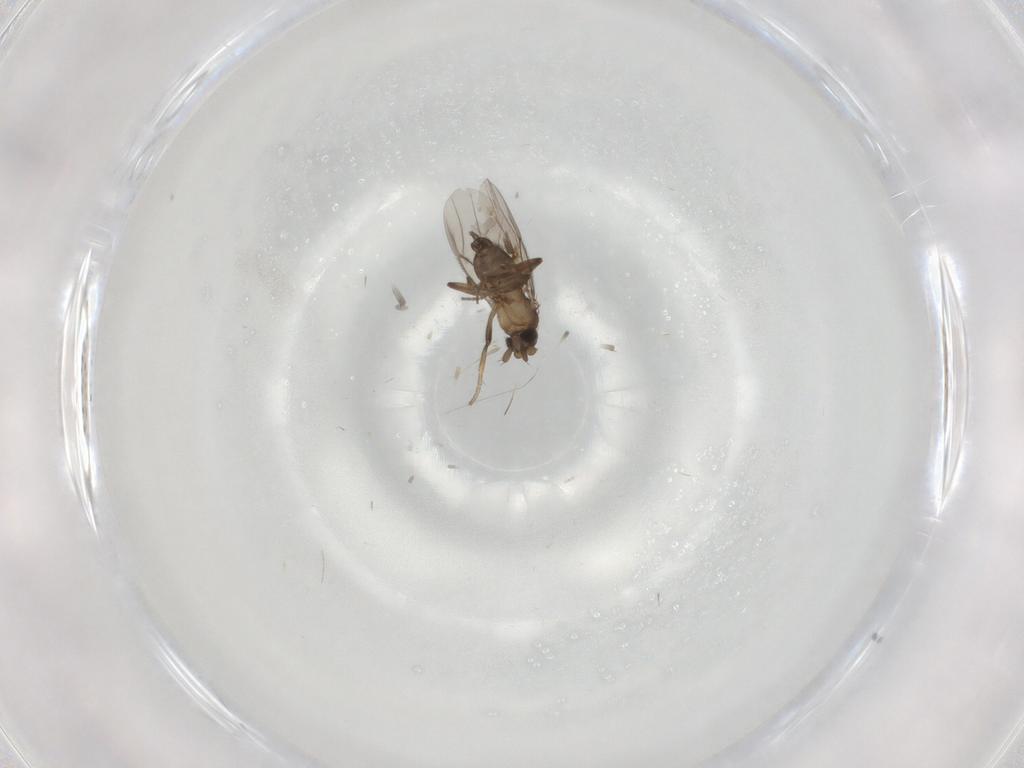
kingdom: Animalia
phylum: Arthropoda
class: Insecta
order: Diptera
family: Phoridae
